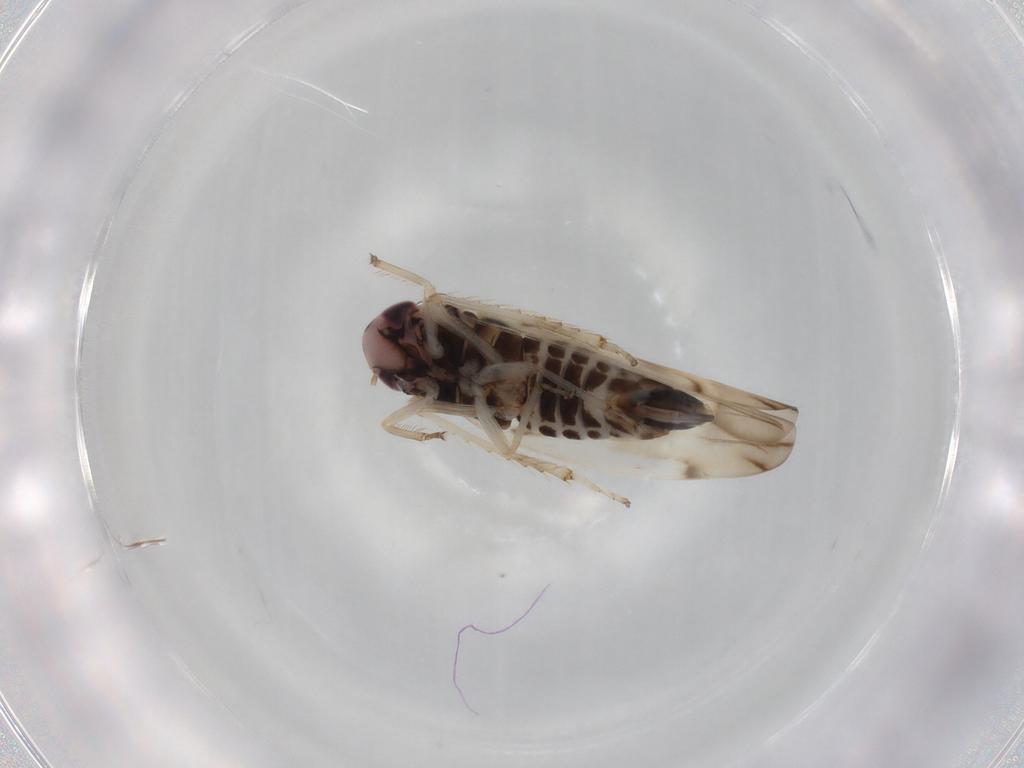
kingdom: Animalia
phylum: Arthropoda
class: Insecta
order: Hemiptera
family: Cicadellidae
